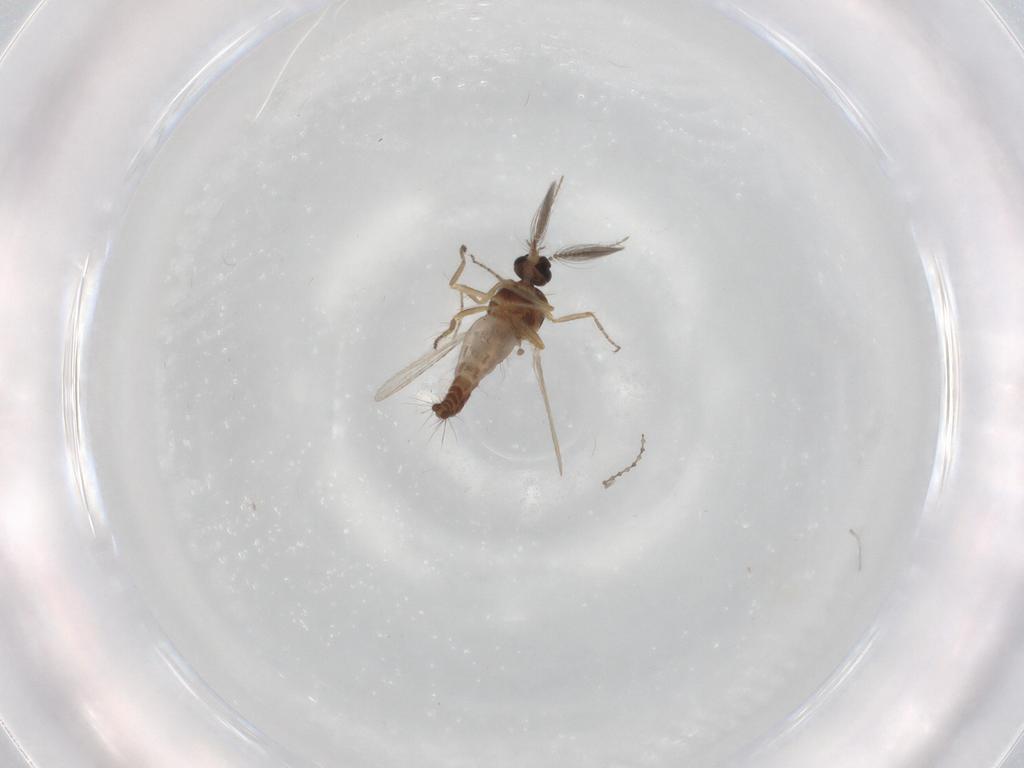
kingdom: Animalia
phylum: Arthropoda
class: Insecta
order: Diptera
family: Ceratopogonidae
